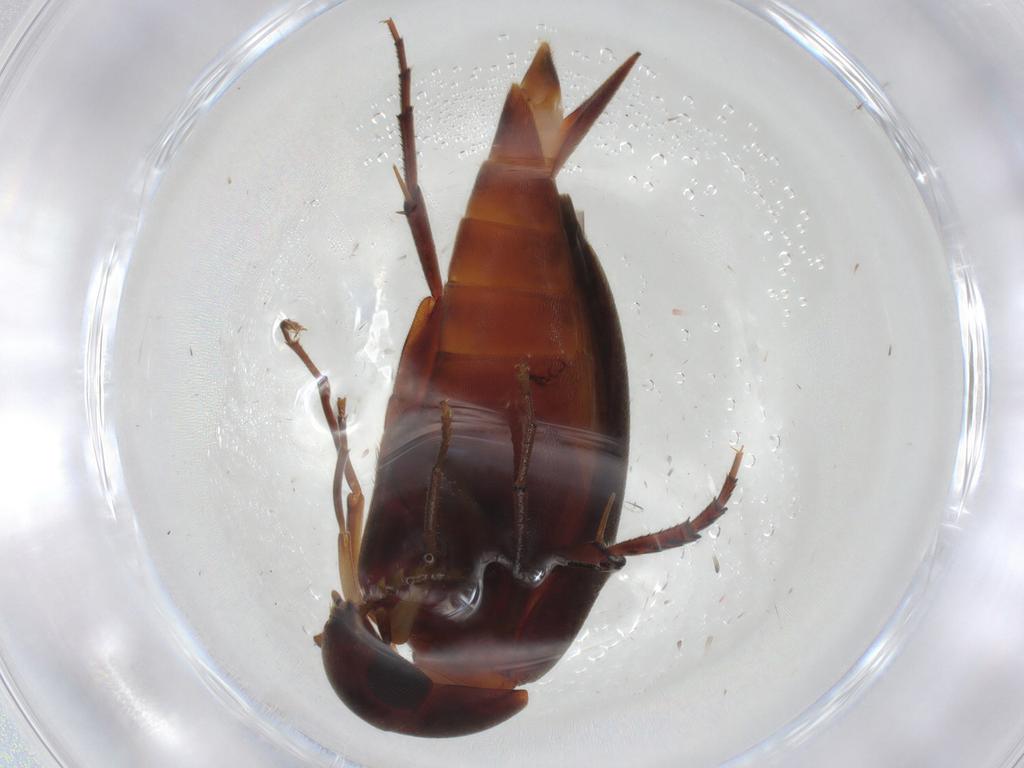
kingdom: Animalia
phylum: Arthropoda
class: Insecta
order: Coleoptera
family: Mordellidae
